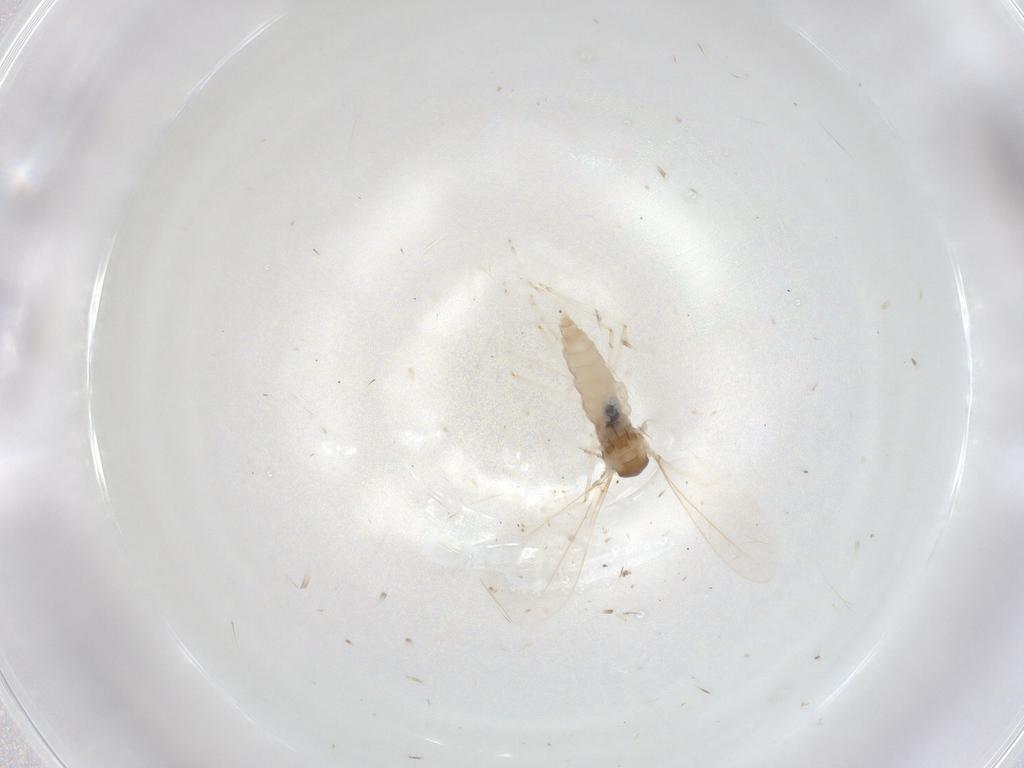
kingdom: Animalia
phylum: Arthropoda
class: Insecta
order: Diptera
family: Cecidomyiidae
